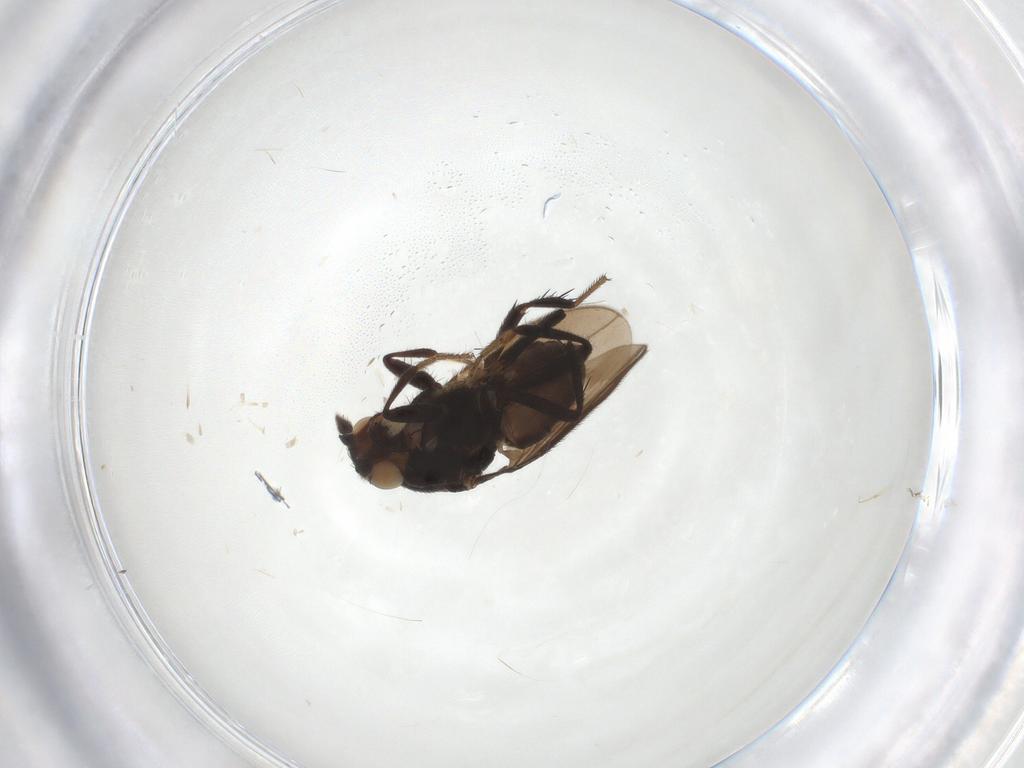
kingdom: Animalia
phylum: Arthropoda
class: Insecta
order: Diptera
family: Sphaeroceridae
